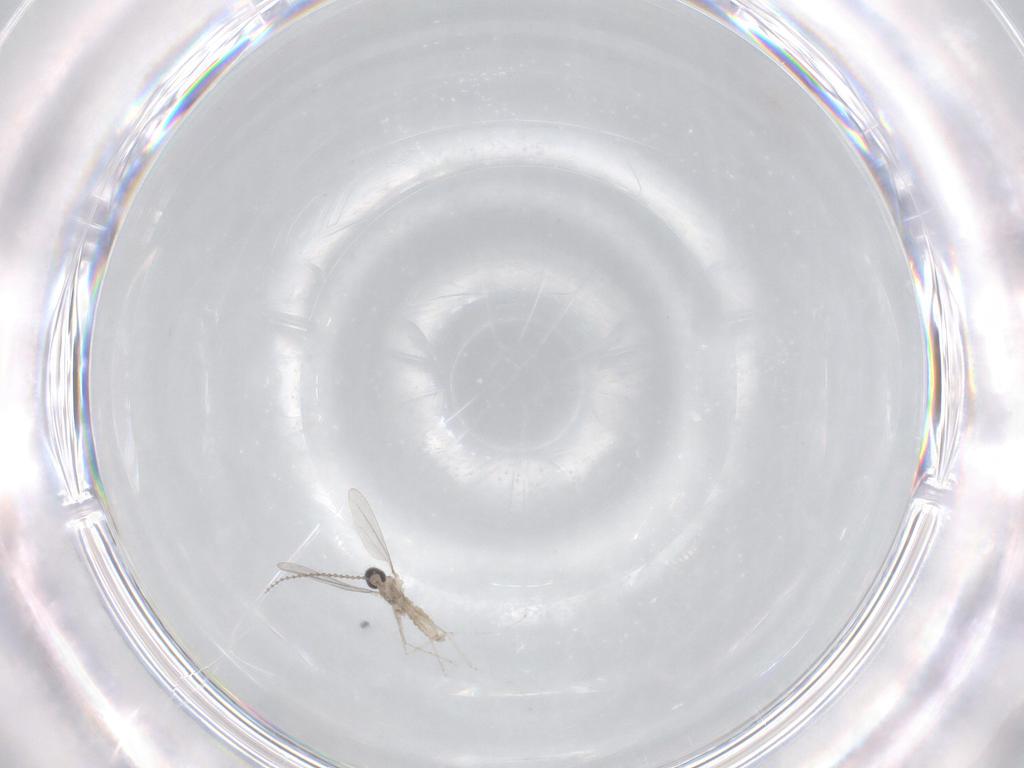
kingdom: Animalia
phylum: Arthropoda
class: Insecta
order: Diptera
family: Cecidomyiidae
